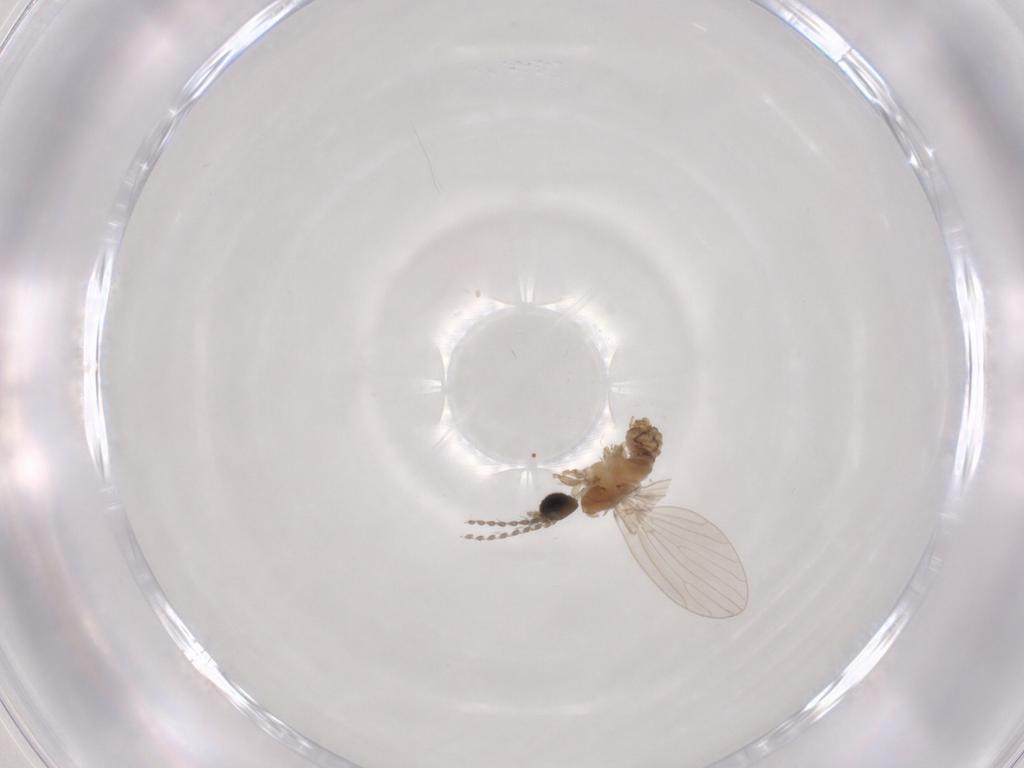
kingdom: Animalia
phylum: Arthropoda
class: Insecta
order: Diptera
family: Psychodidae
